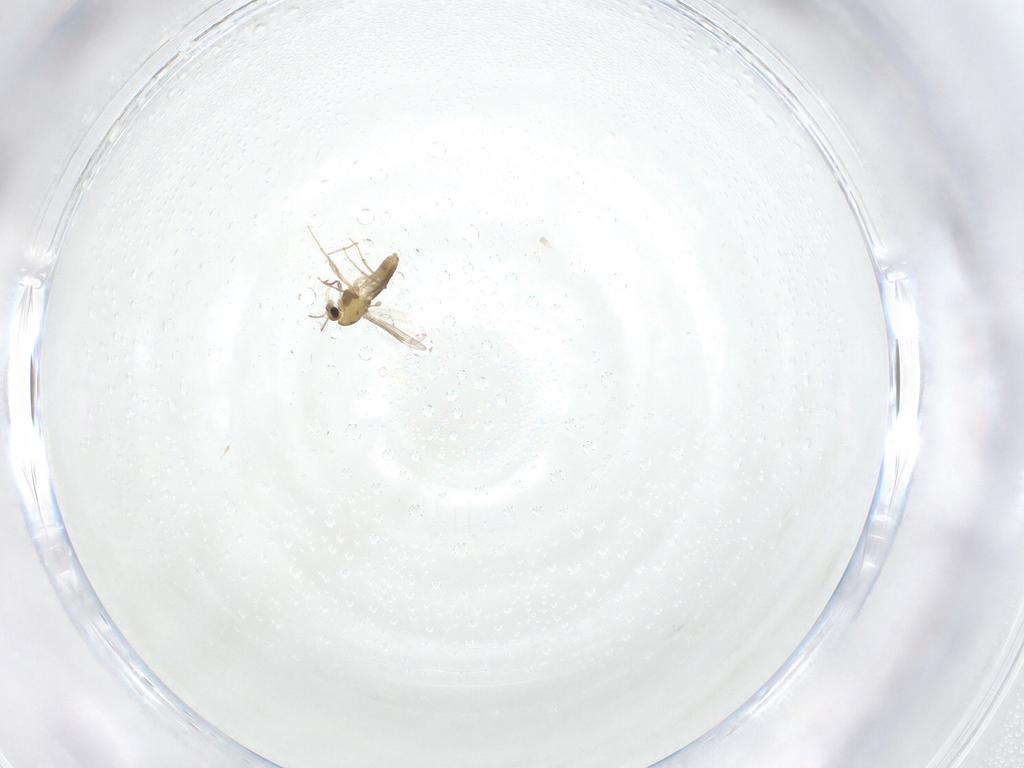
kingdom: Animalia
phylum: Arthropoda
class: Insecta
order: Diptera
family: Chironomidae
